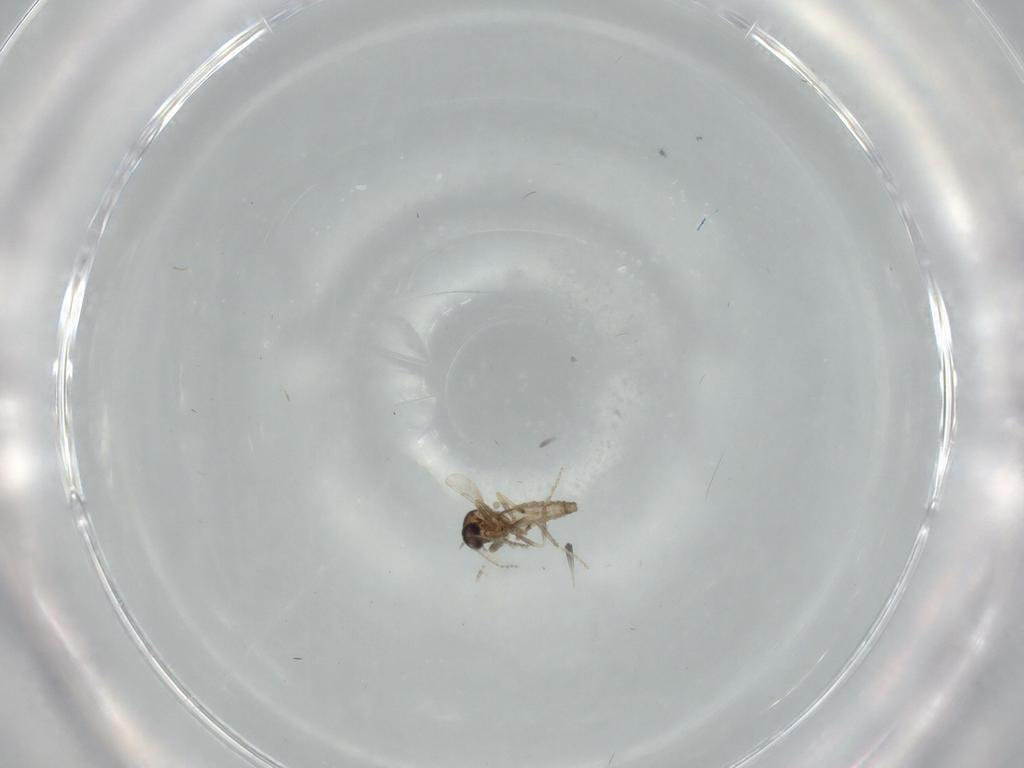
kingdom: Animalia
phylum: Arthropoda
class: Insecta
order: Diptera
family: Ceratopogonidae
